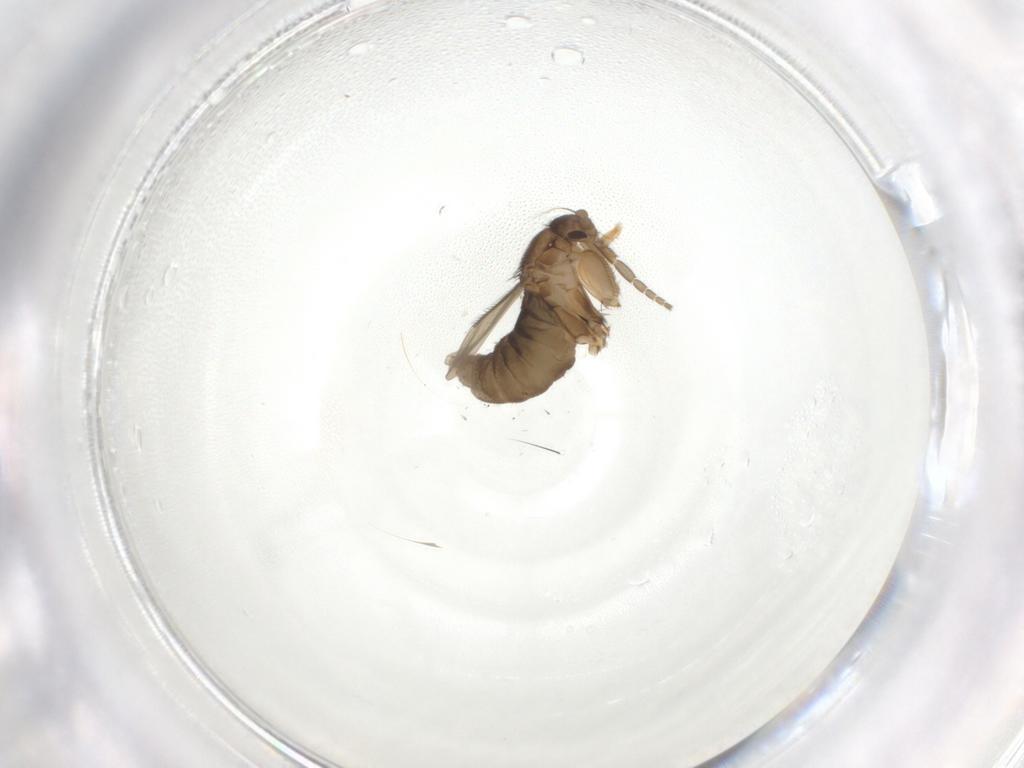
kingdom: Animalia
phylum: Arthropoda
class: Insecta
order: Diptera
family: Phoridae
